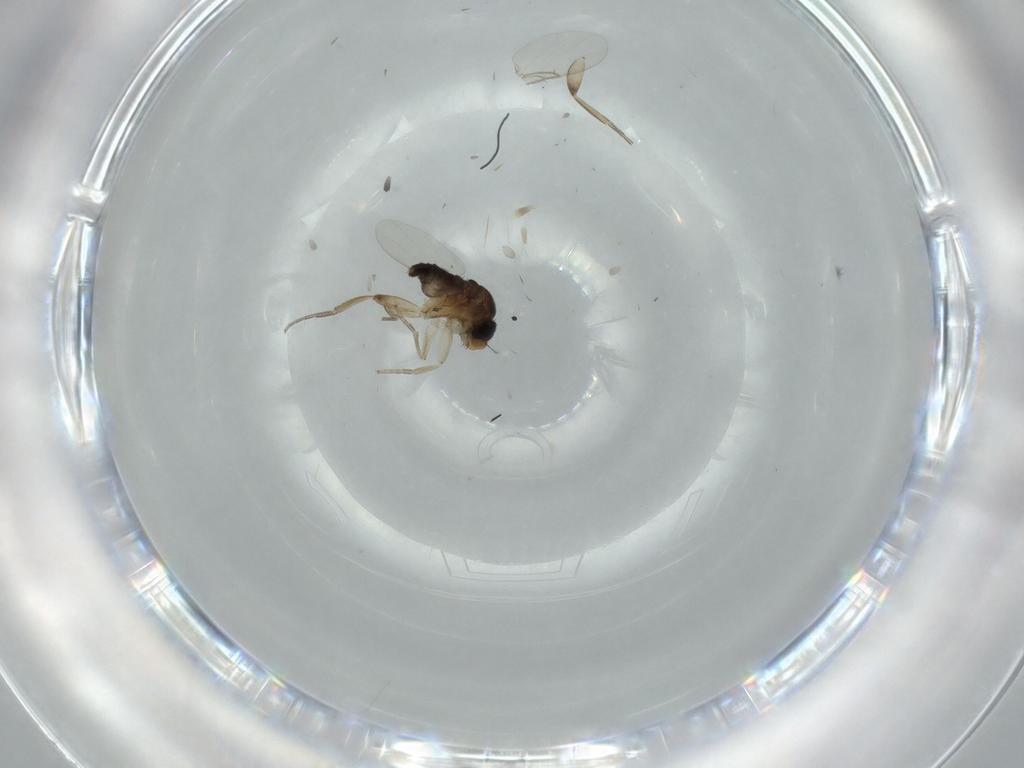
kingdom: Animalia
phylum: Arthropoda
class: Insecta
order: Diptera
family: Phoridae
